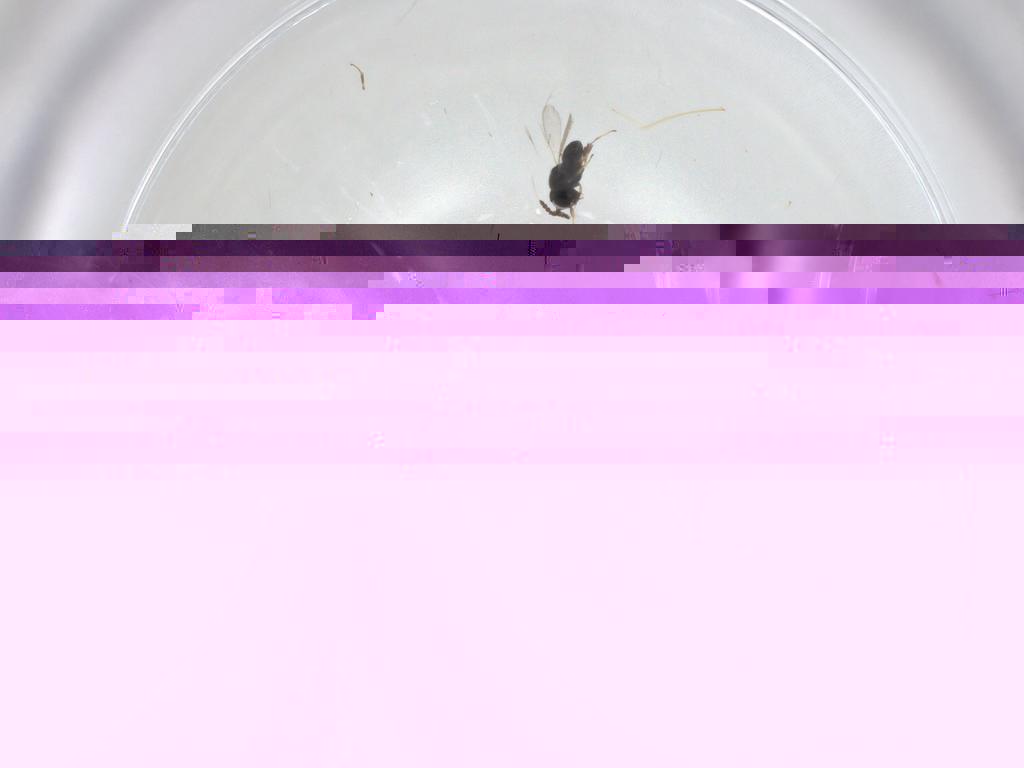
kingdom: Animalia
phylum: Arthropoda
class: Insecta
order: Hymenoptera
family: Scelionidae
